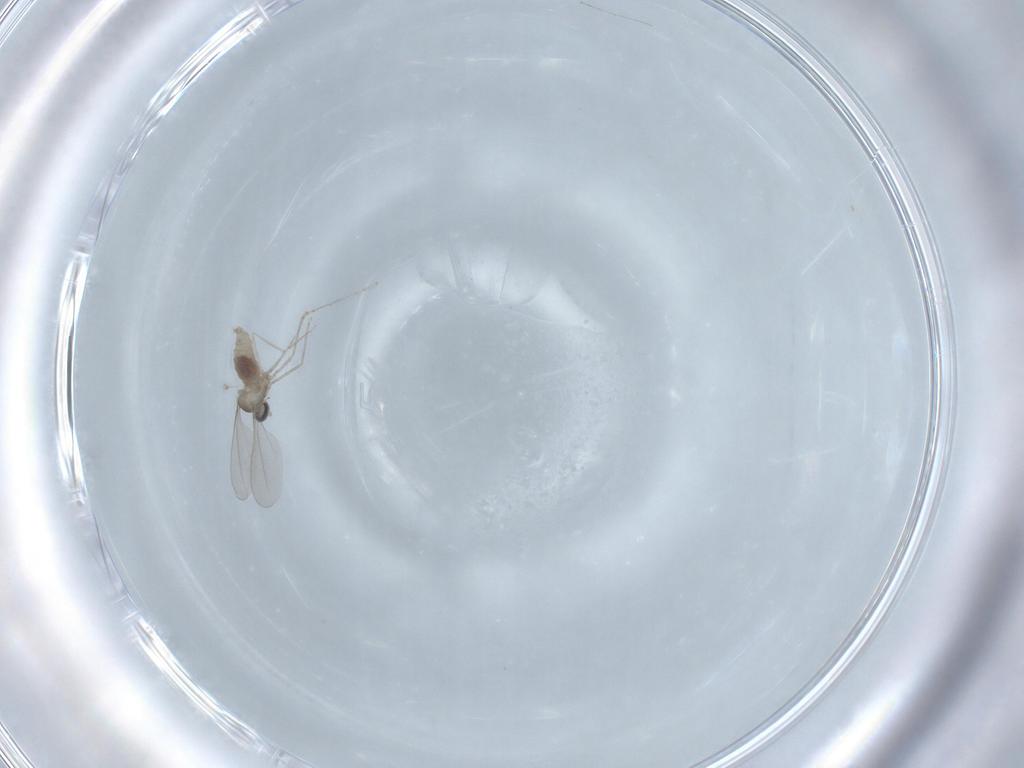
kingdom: Animalia
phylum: Arthropoda
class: Insecta
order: Diptera
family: Cecidomyiidae
